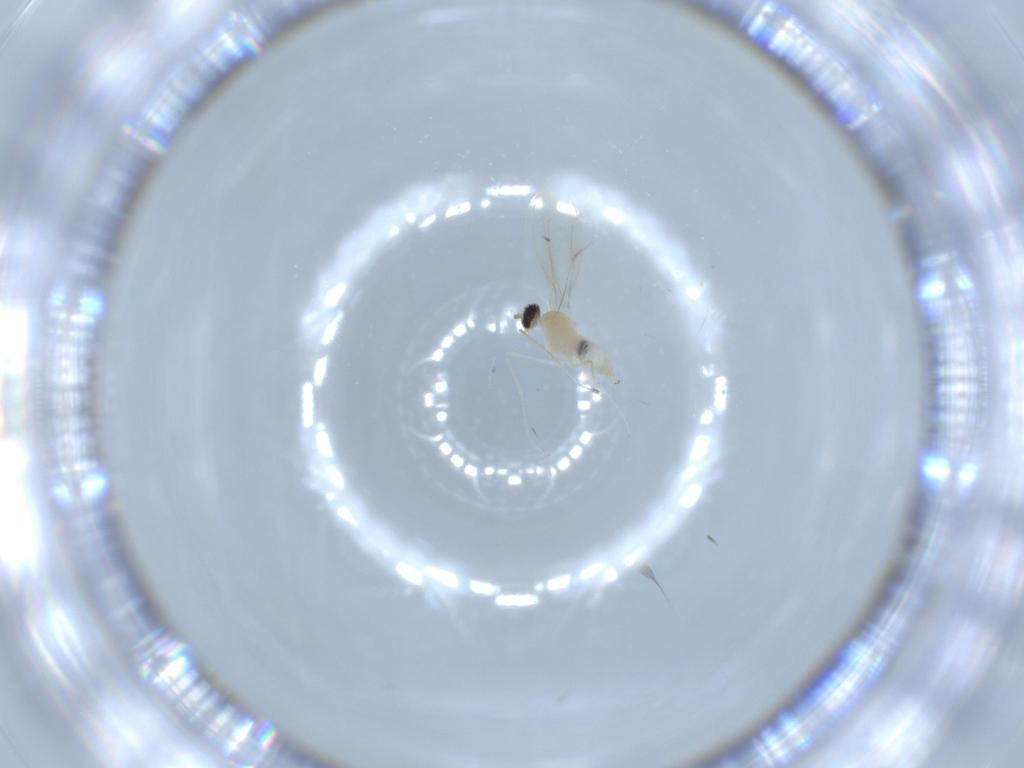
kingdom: Animalia
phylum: Arthropoda
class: Insecta
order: Diptera
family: Cecidomyiidae
